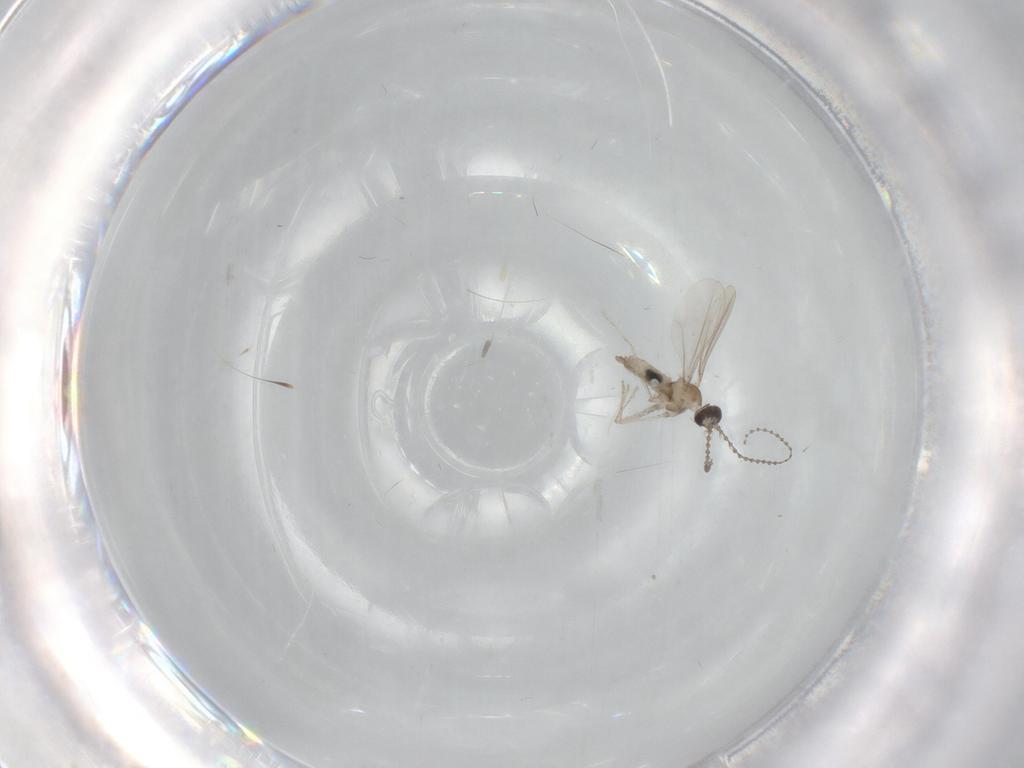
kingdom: Animalia
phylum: Arthropoda
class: Insecta
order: Diptera
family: Cecidomyiidae
